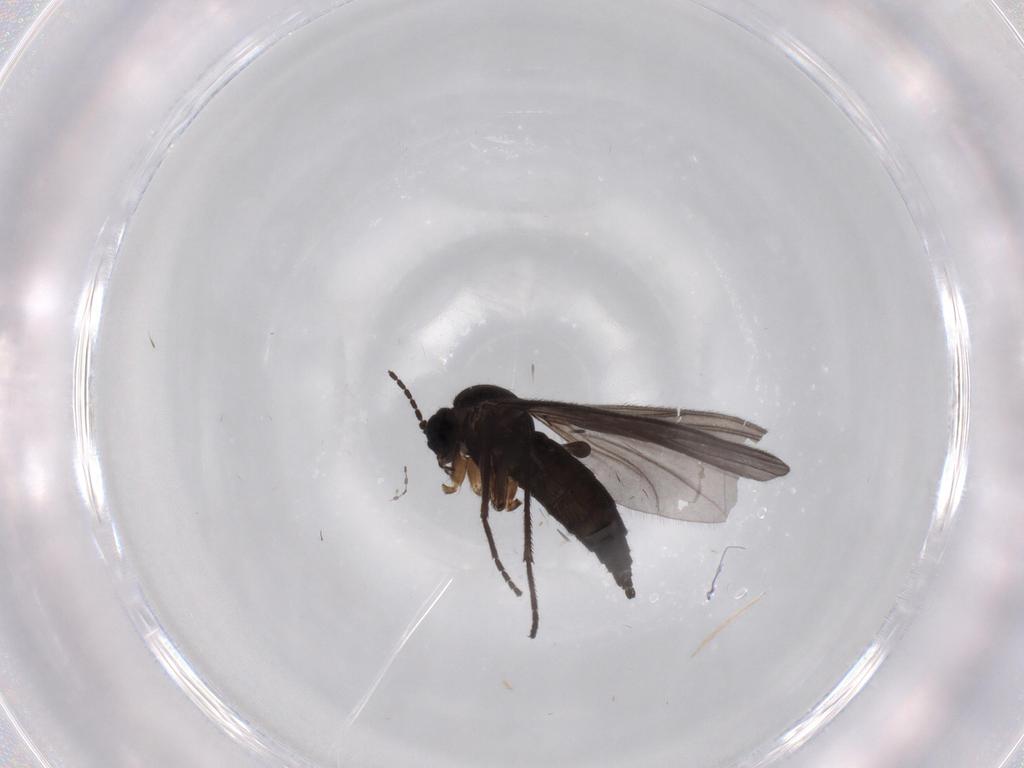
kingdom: Animalia
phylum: Arthropoda
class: Insecta
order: Diptera
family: Sciaridae
